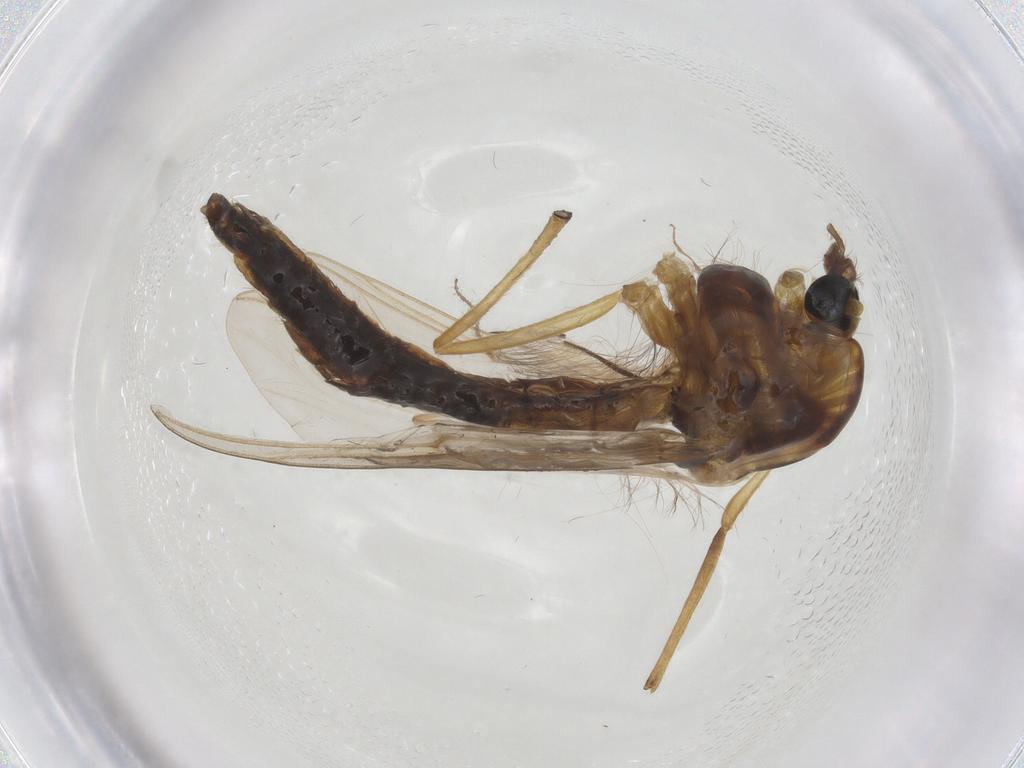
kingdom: Animalia
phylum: Arthropoda
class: Insecta
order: Diptera
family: Chironomidae
